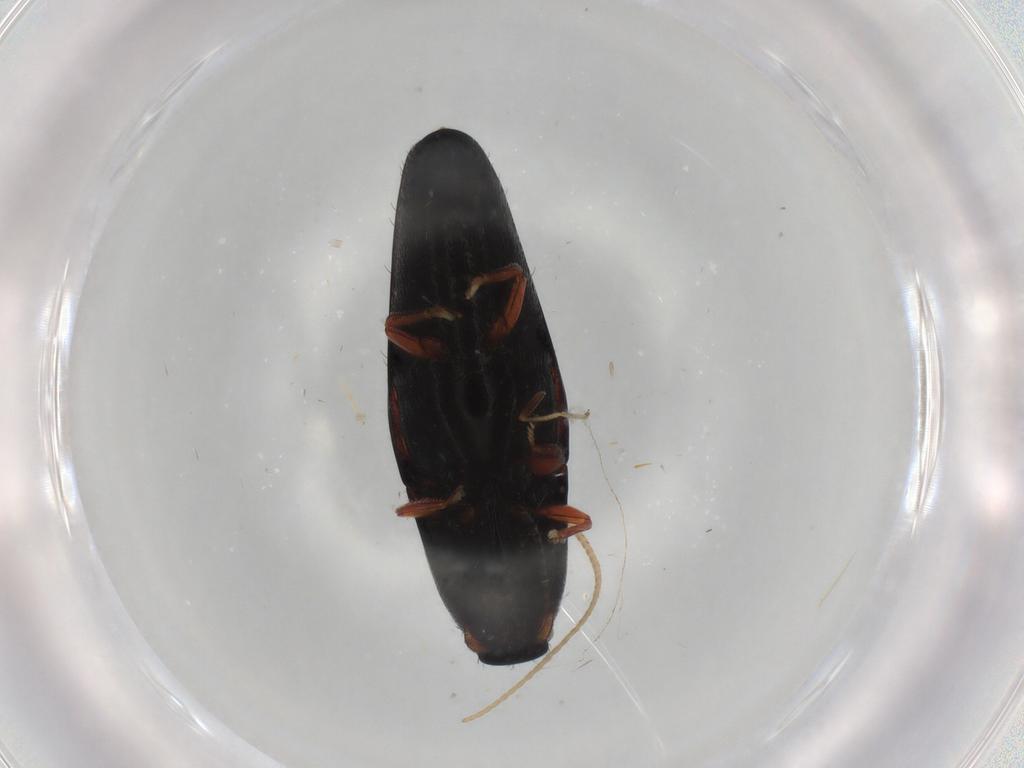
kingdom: Animalia
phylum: Arthropoda
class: Insecta
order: Coleoptera
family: Elateridae
